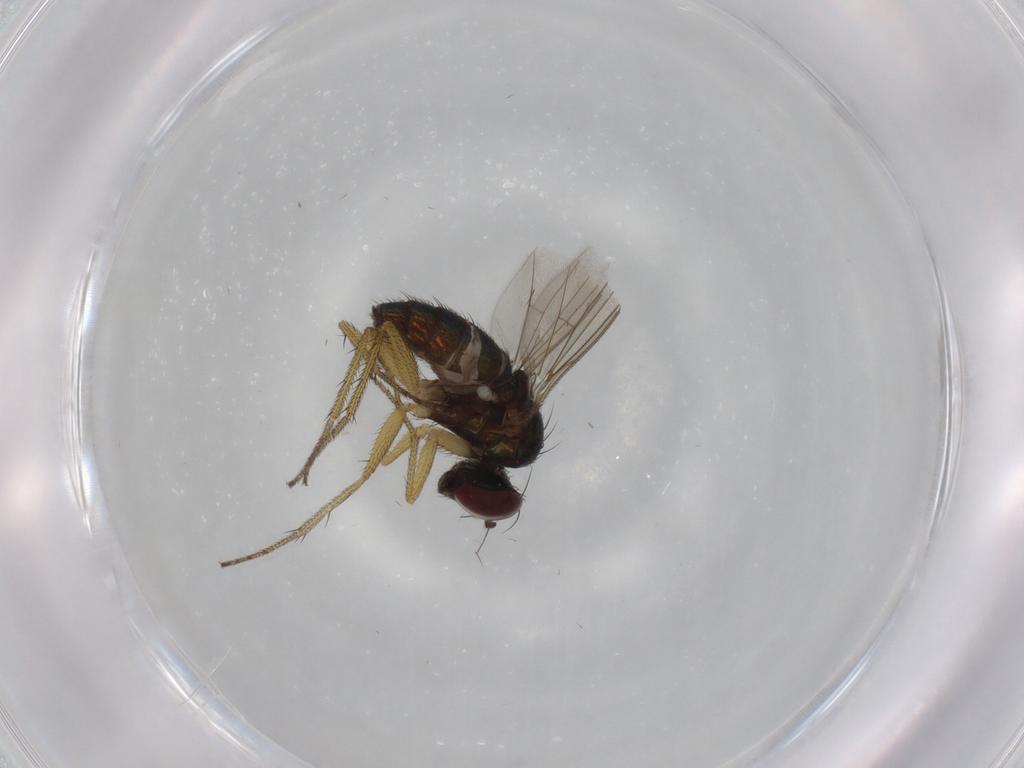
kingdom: Animalia
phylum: Arthropoda
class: Insecta
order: Diptera
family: Dolichopodidae
